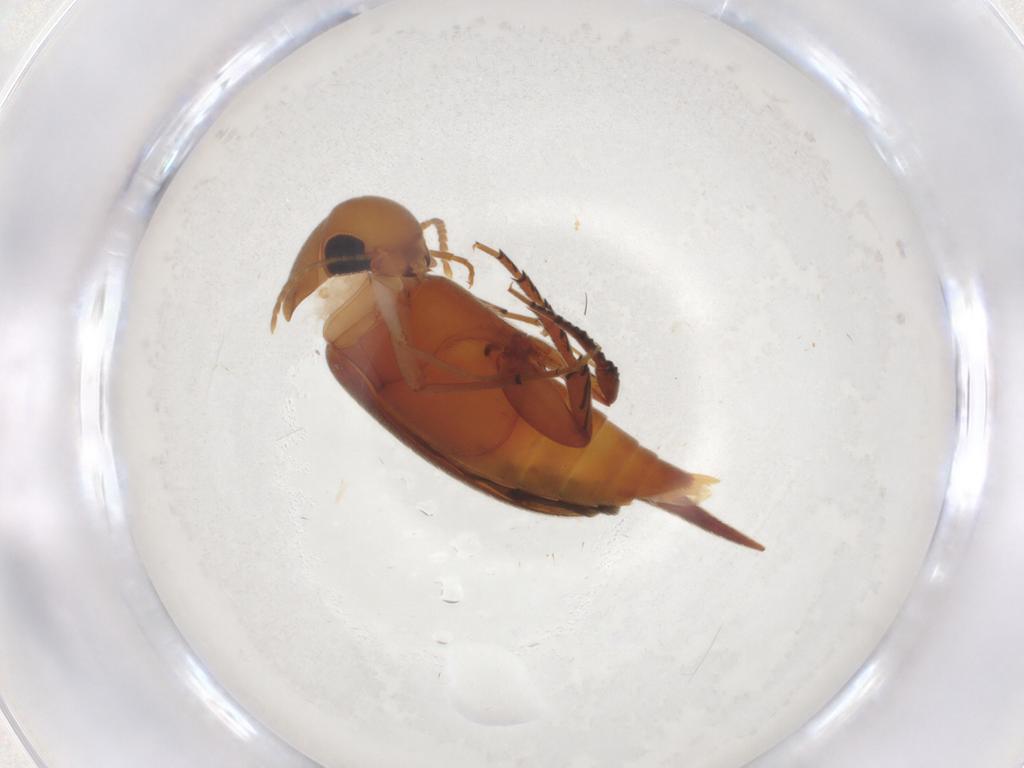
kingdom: Animalia
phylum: Arthropoda
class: Insecta
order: Coleoptera
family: Mordellidae
